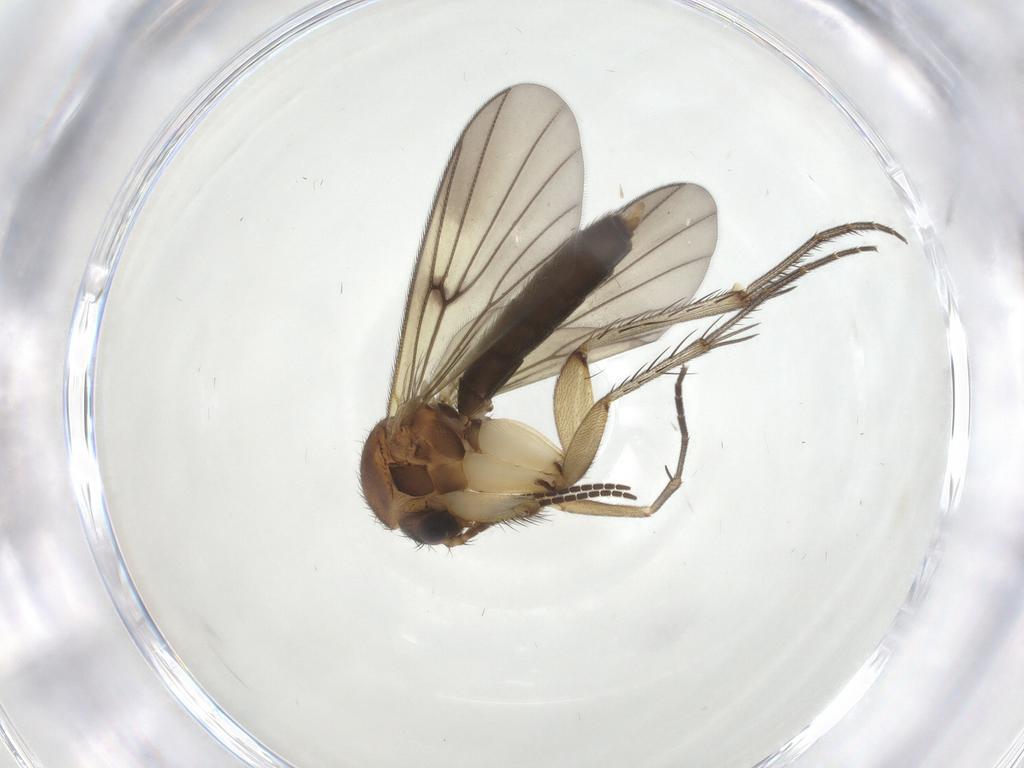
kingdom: Animalia
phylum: Arthropoda
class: Insecta
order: Diptera
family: Mycetophilidae
